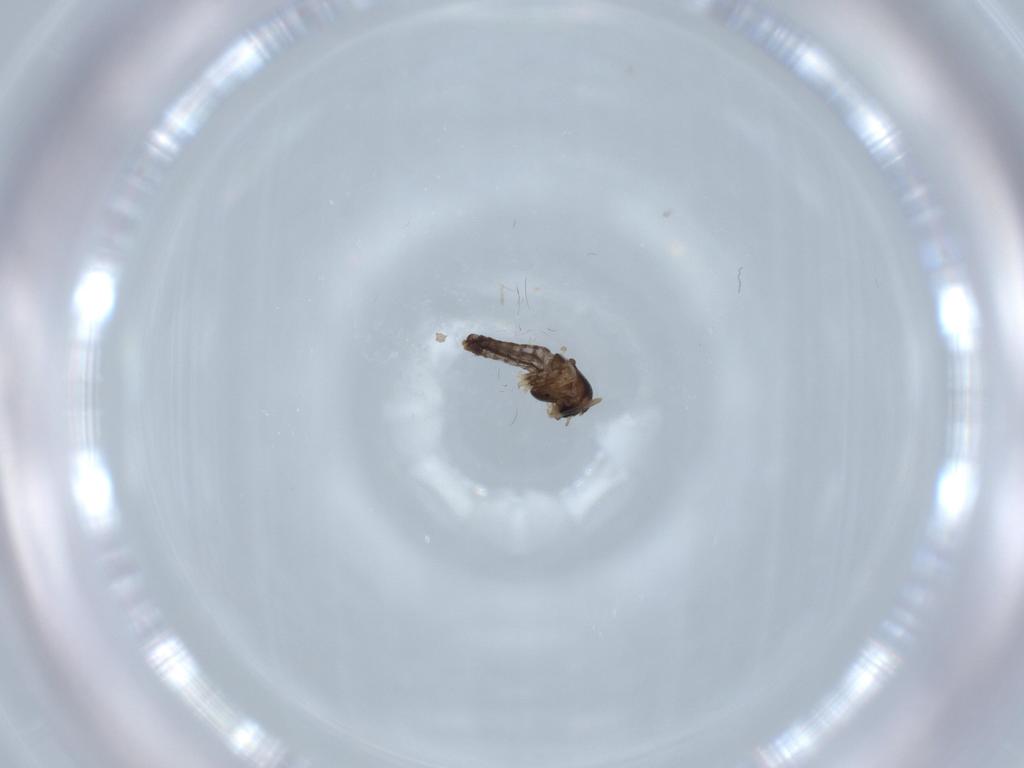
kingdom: Animalia
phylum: Arthropoda
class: Insecta
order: Diptera
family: Chironomidae
